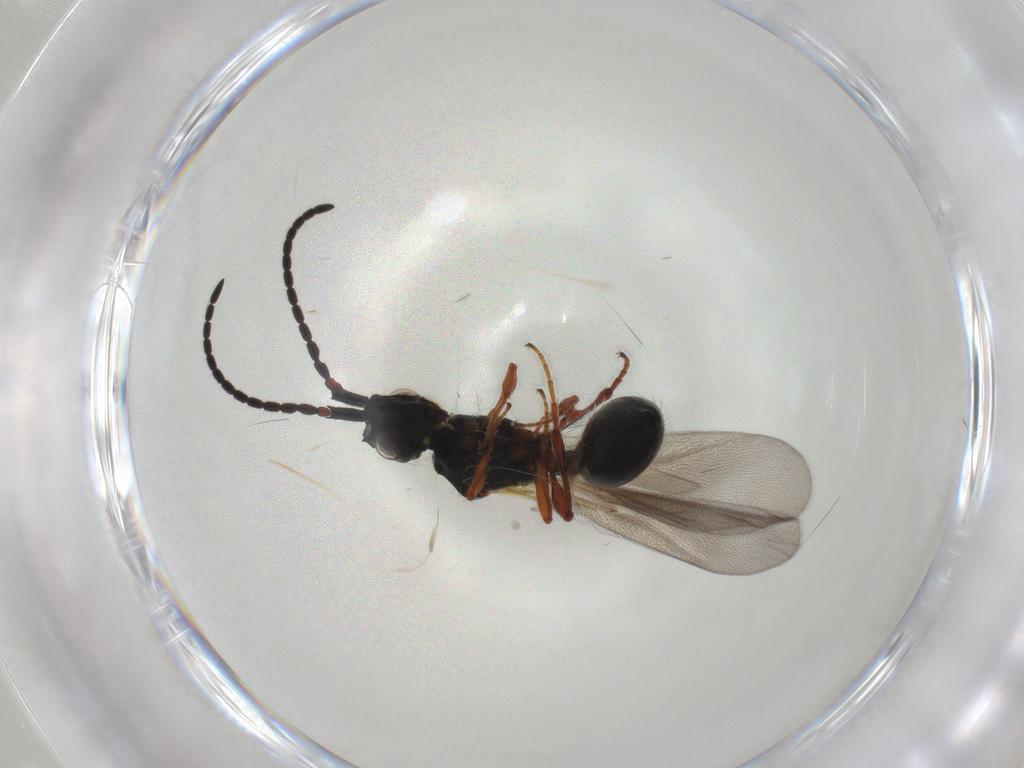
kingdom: Animalia
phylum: Arthropoda
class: Insecta
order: Hymenoptera
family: Diapriidae
